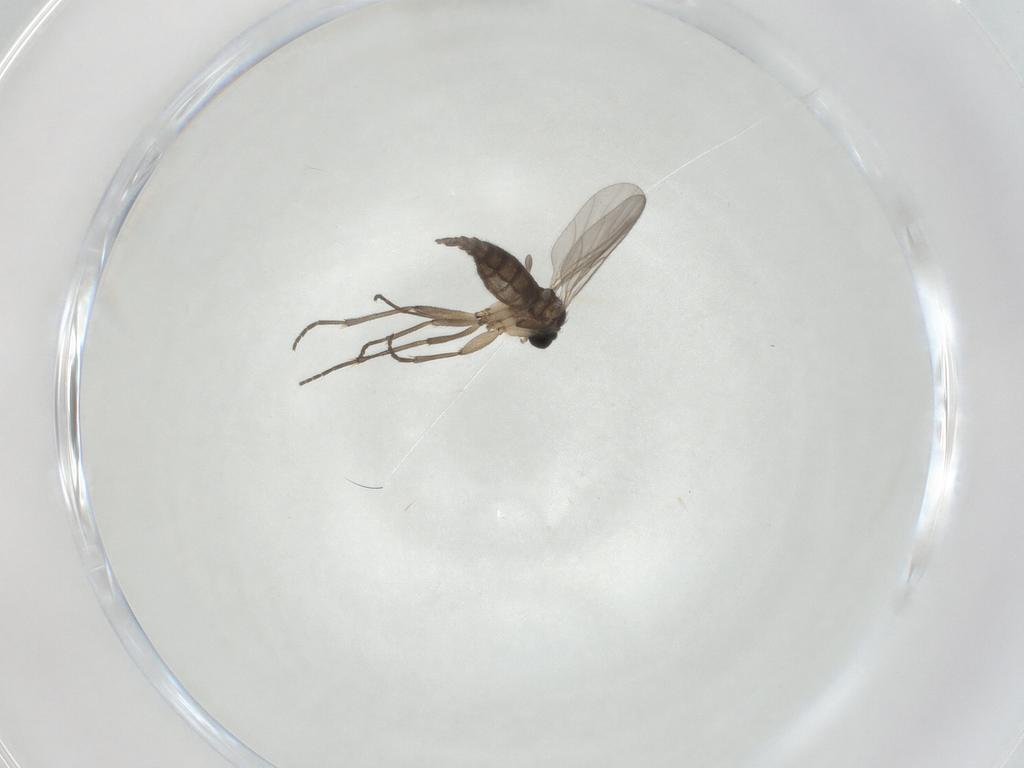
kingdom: Animalia
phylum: Arthropoda
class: Insecta
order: Diptera
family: Sciaridae
